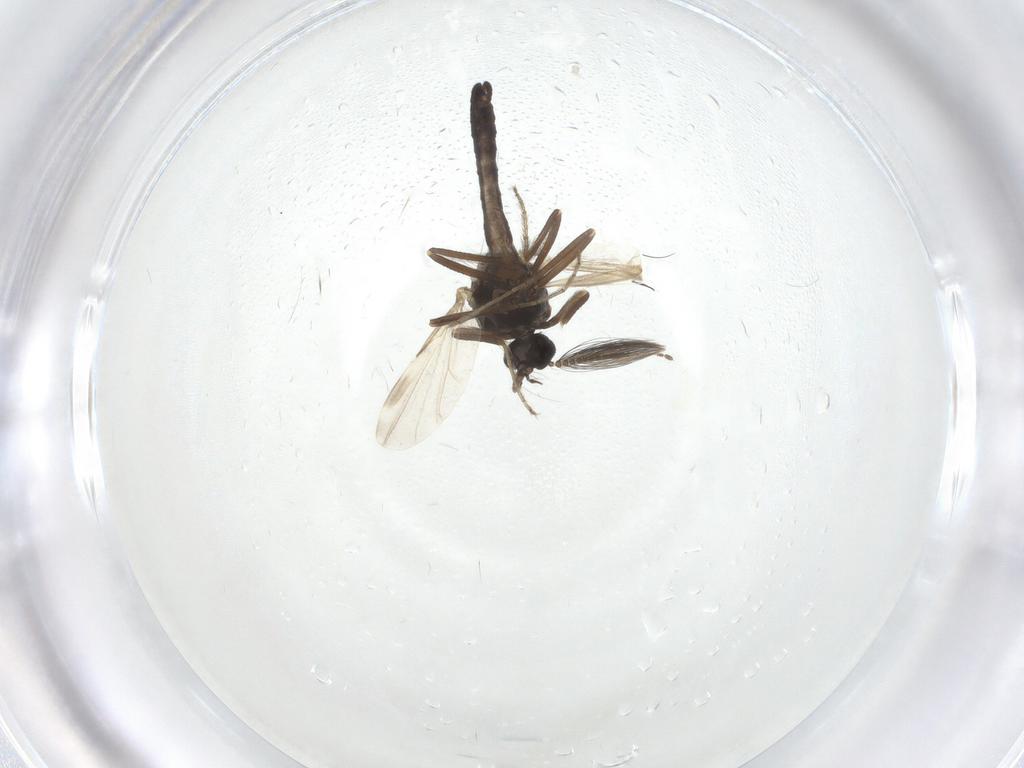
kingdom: Animalia
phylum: Arthropoda
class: Insecta
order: Diptera
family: Ceratopogonidae
